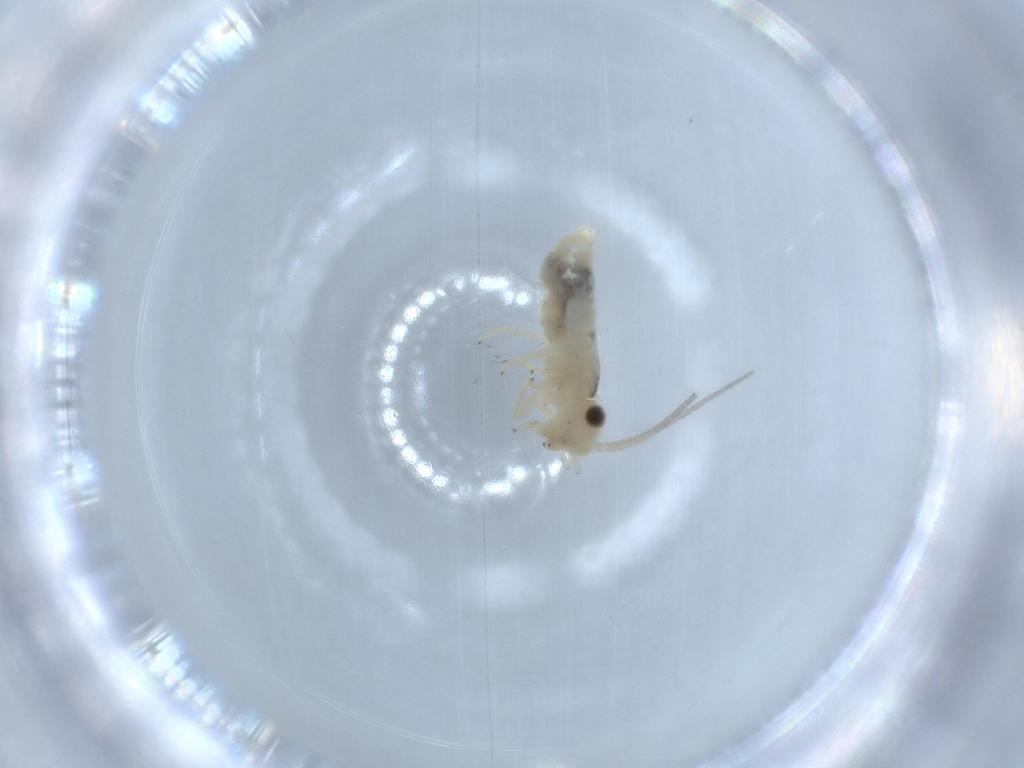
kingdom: Animalia
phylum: Arthropoda
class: Insecta
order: Psocodea
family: Caeciliusidae
